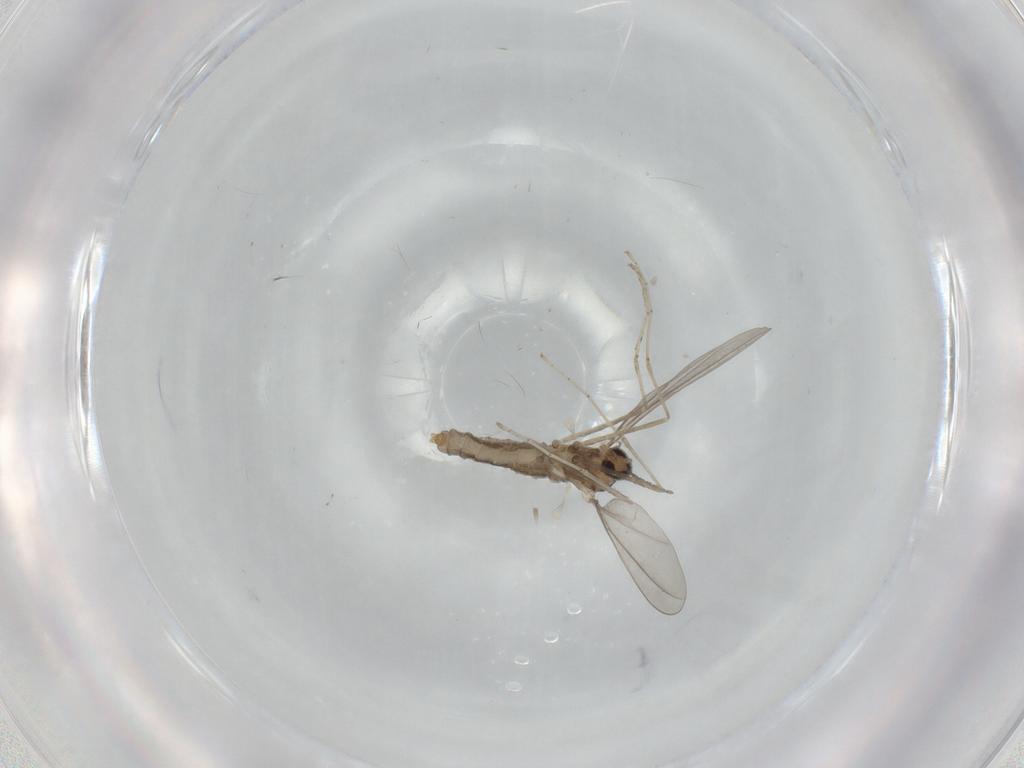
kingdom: Animalia
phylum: Arthropoda
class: Insecta
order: Diptera
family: Cecidomyiidae
